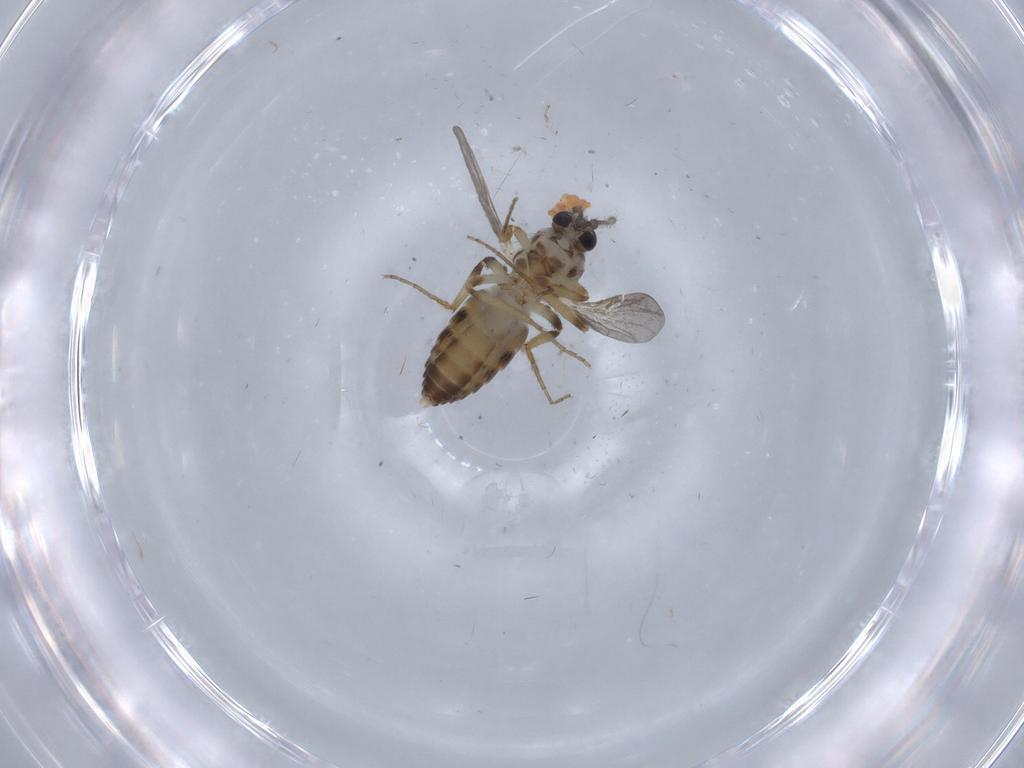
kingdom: Animalia
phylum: Arthropoda
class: Insecta
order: Diptera
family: Ceratopogonidae
